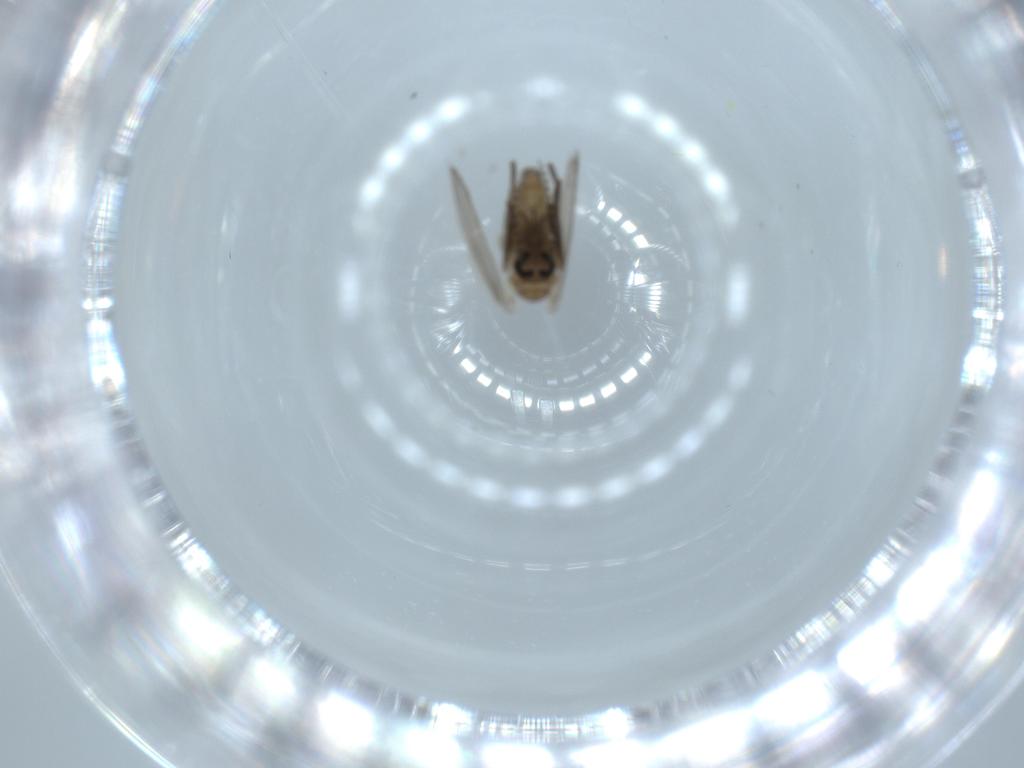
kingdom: Animalia
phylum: Arthropoda
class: Insecta
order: Diptera
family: Psychodidae
